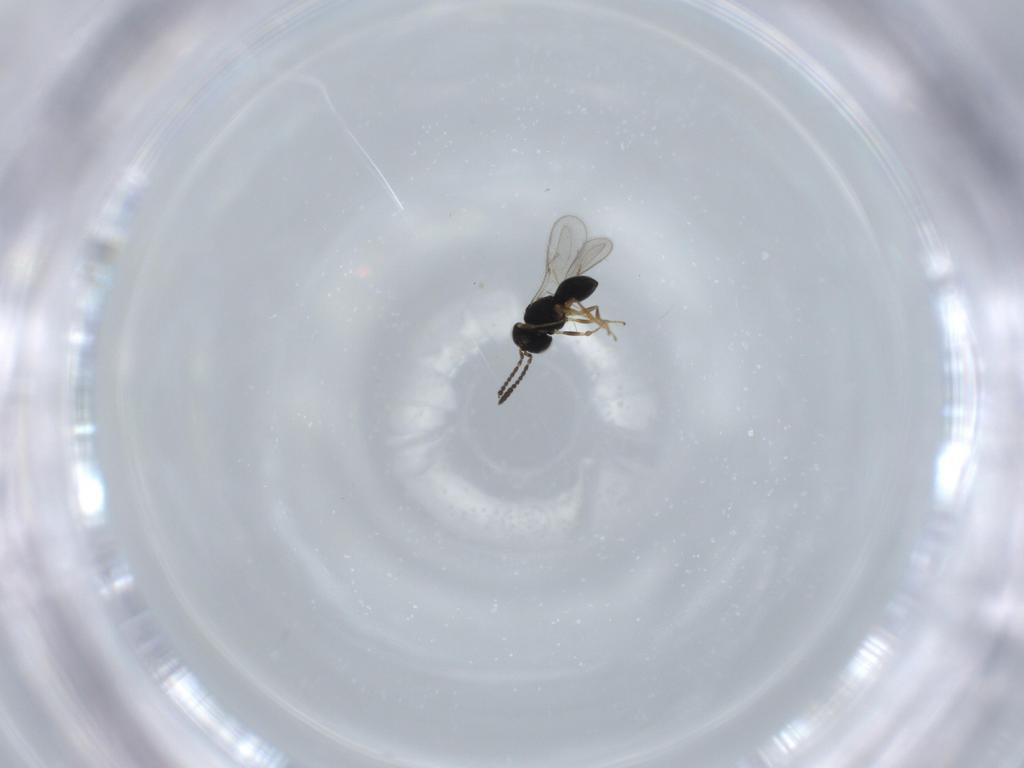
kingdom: Animalia
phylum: Arthropoda
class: Insecta
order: Hymenoptera
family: Scelionidae
